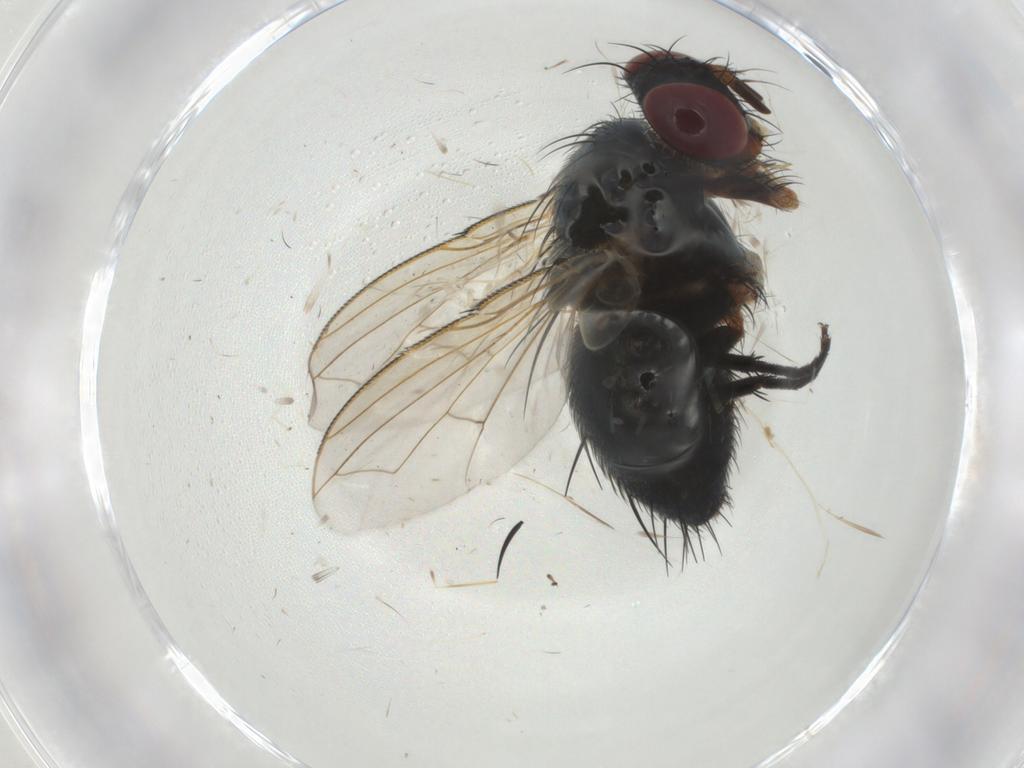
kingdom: Animalia
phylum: Arthropoda
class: Insecta
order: Diptera
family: Tachinidae
